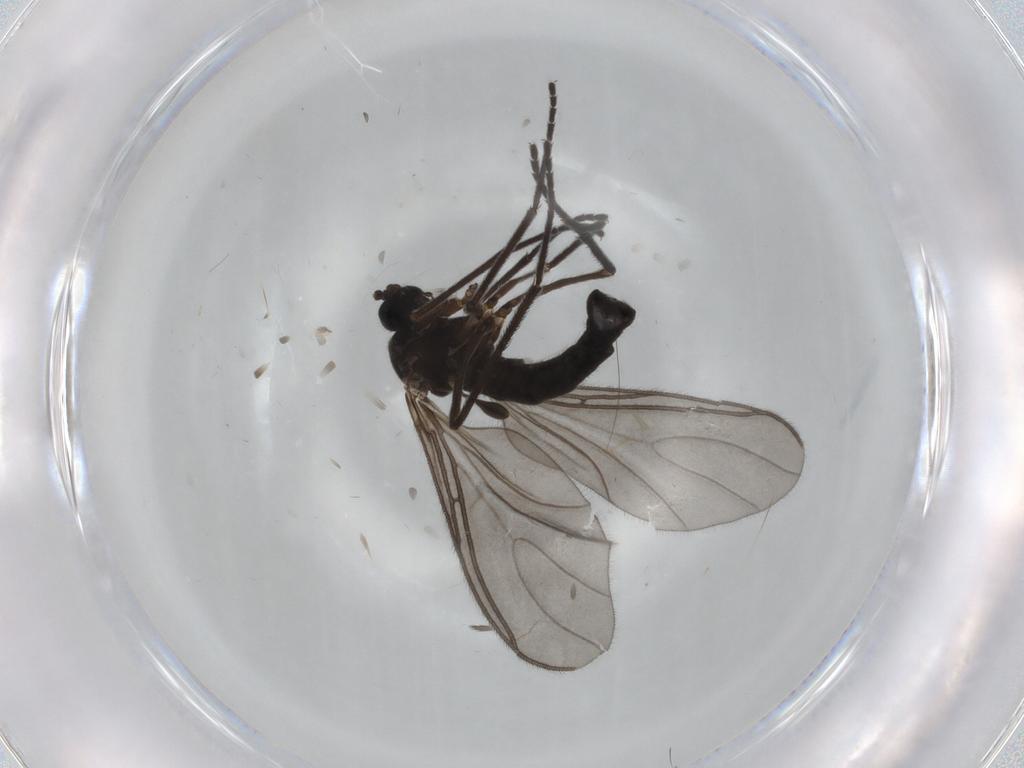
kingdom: Animalia
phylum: Arthropoda
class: Insecta
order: Diptera
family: Sciaridae
